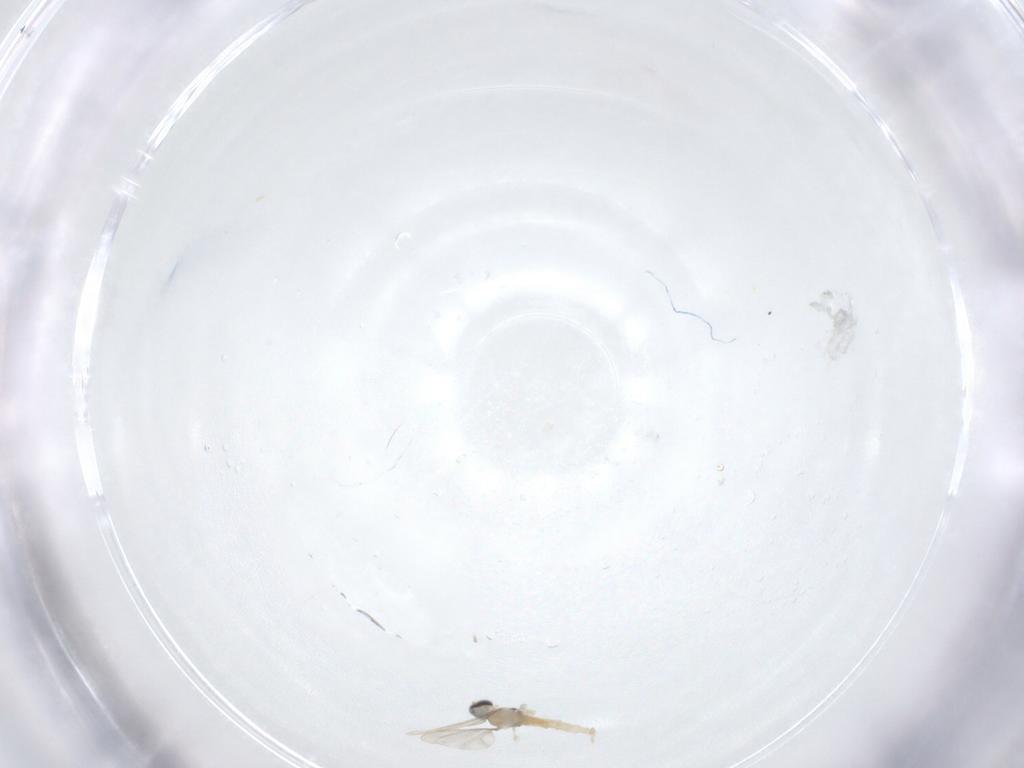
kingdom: Animalia
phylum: Arthropoda
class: Insecta
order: Diptera
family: Cecidomyiidae
